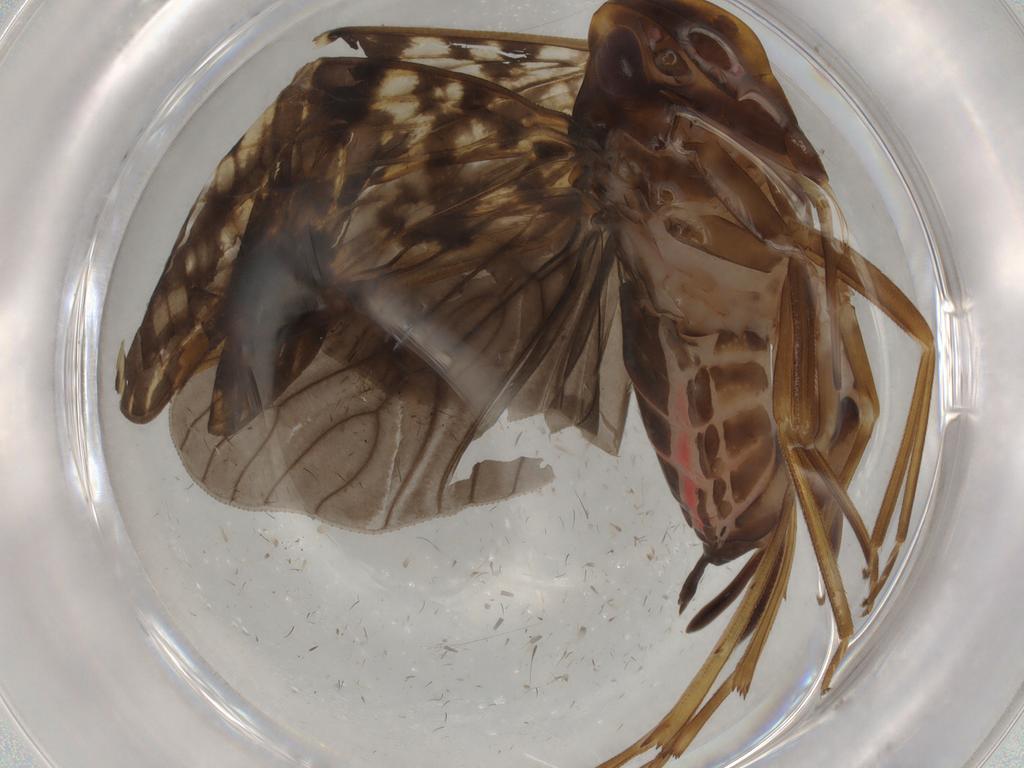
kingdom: Animalia
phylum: Arthropoda
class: Insecta
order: Hemiptera
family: Cixiidae
